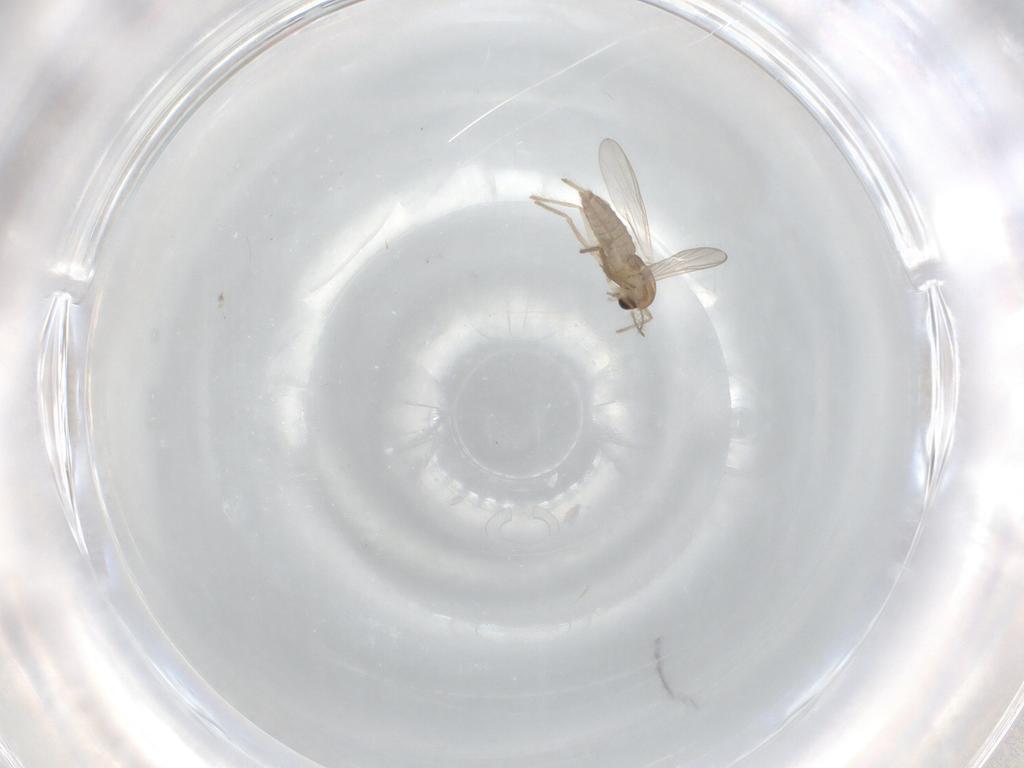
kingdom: Animalia
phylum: Arthropoda
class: Insecta
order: Diptera
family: Chironomidae
